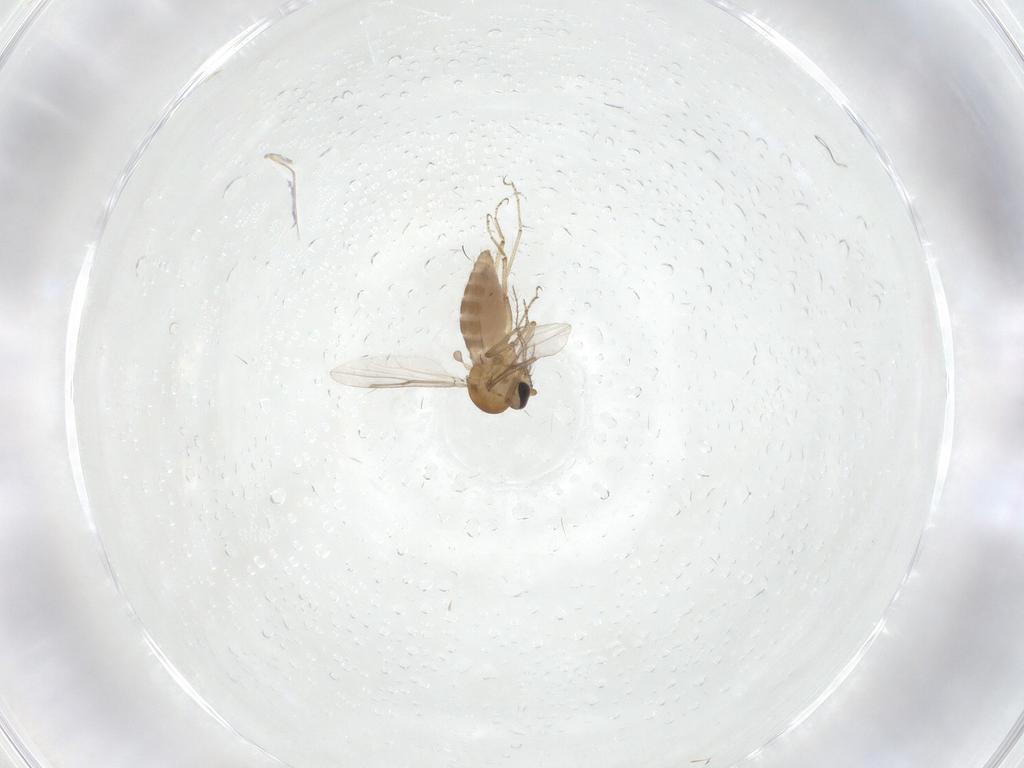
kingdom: Animalia
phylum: Arthropoda
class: Insecta
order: Diptera
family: Ceratopogonidae
